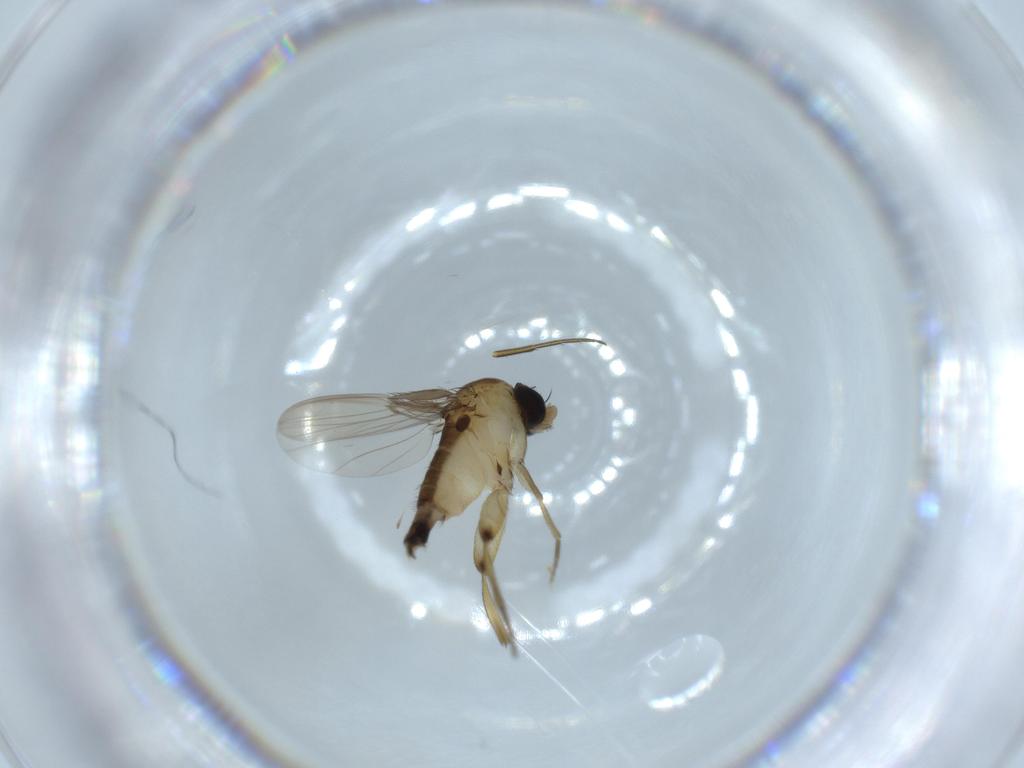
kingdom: Animalia
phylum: Arthropoda
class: Insecta
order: Diptera
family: Phoridae
